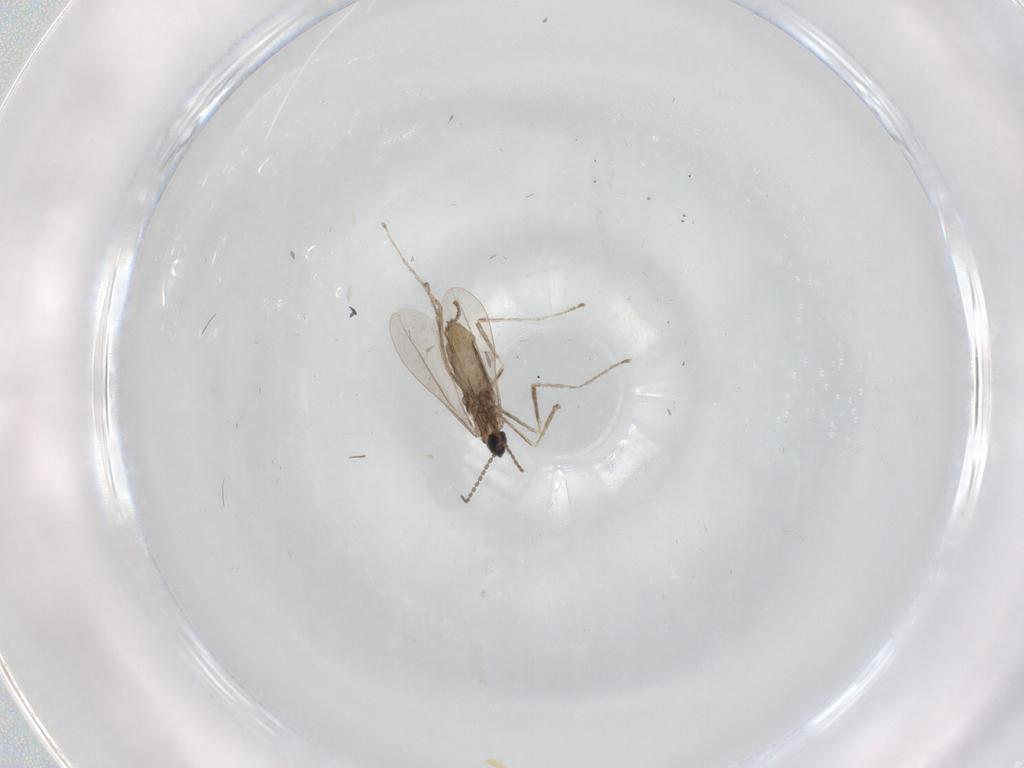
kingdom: Animalia
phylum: Arthropoda
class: Insecta
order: Diptera
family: Cecidomyiidae
